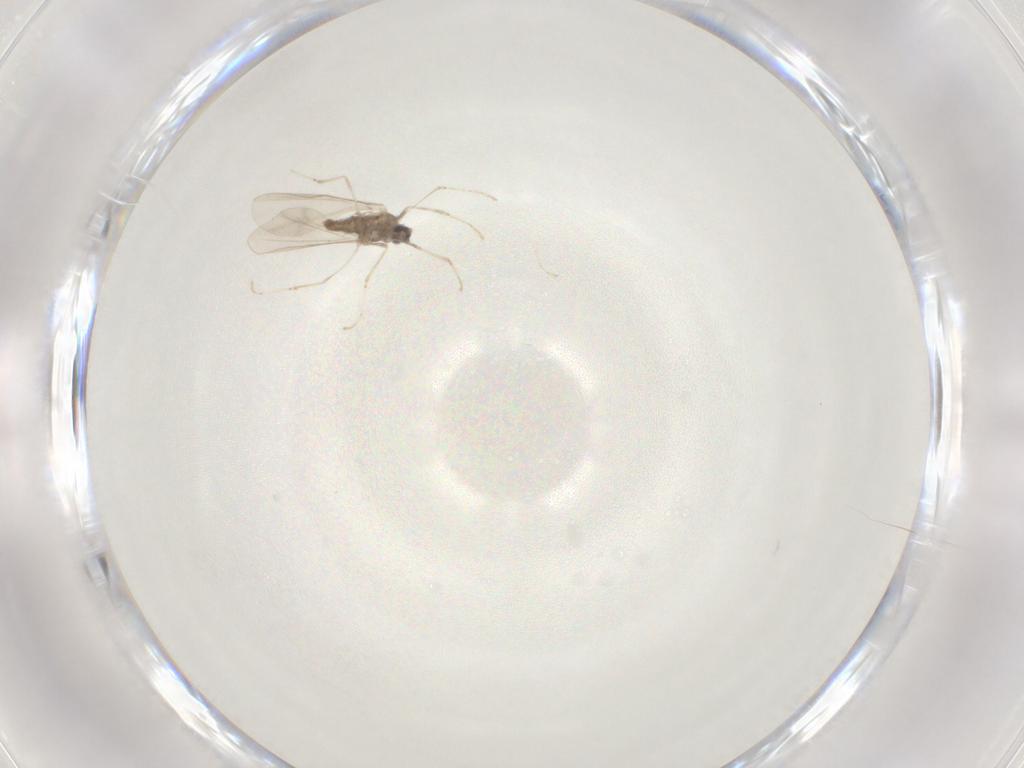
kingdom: Animalia
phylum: Arthropoda
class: Insecta
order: Diptera
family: Cecidomyiidae
